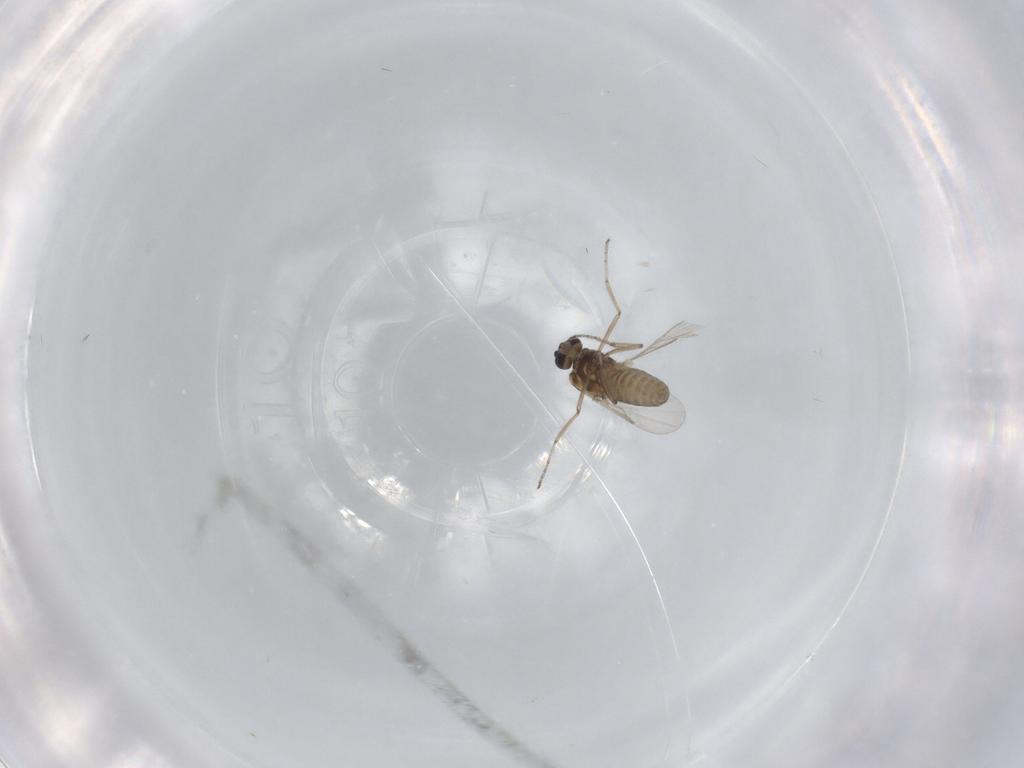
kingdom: Animalia
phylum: Arthropoda
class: Insecta
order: Diptera
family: Ceratopogonidae
